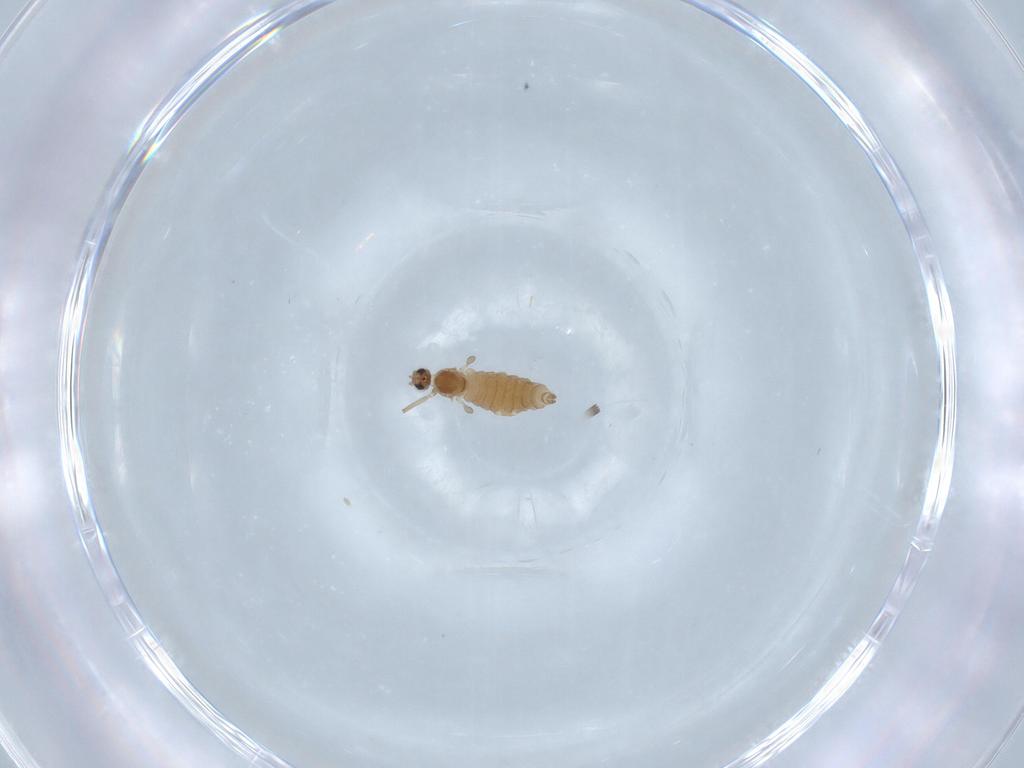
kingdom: Animalia
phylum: Arthropoda
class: Insecta
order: Diptera
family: Cecidomyiidae
